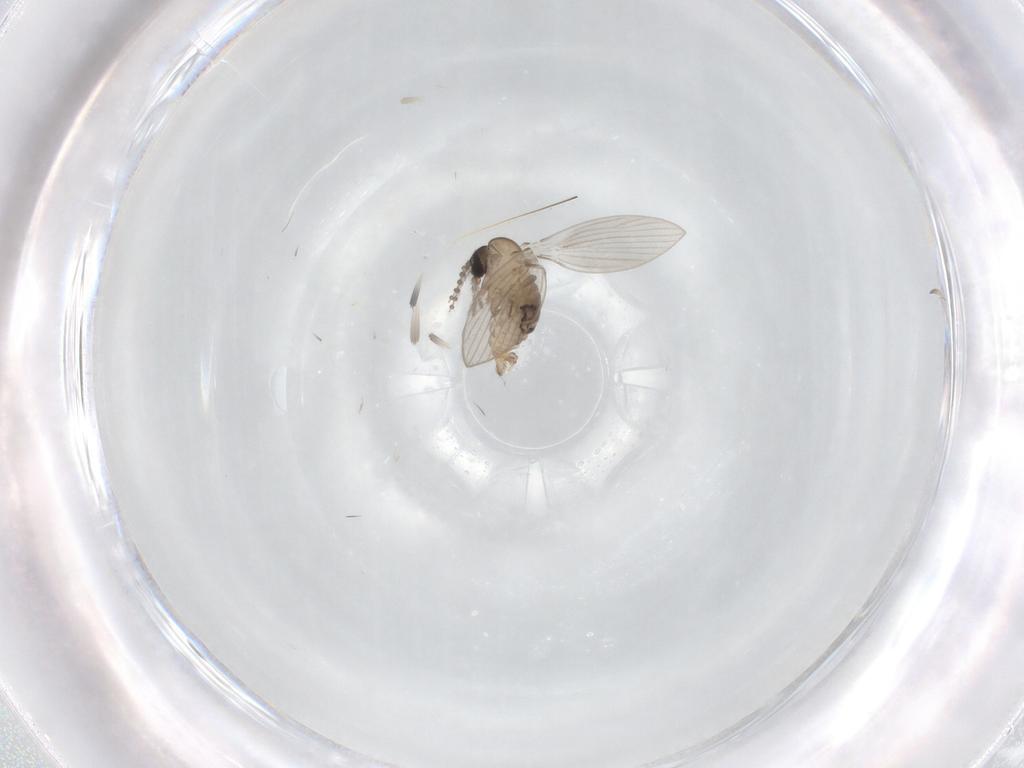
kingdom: Animalia
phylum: Arthropoda
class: Insecta
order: Diptera
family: Psychodidae
